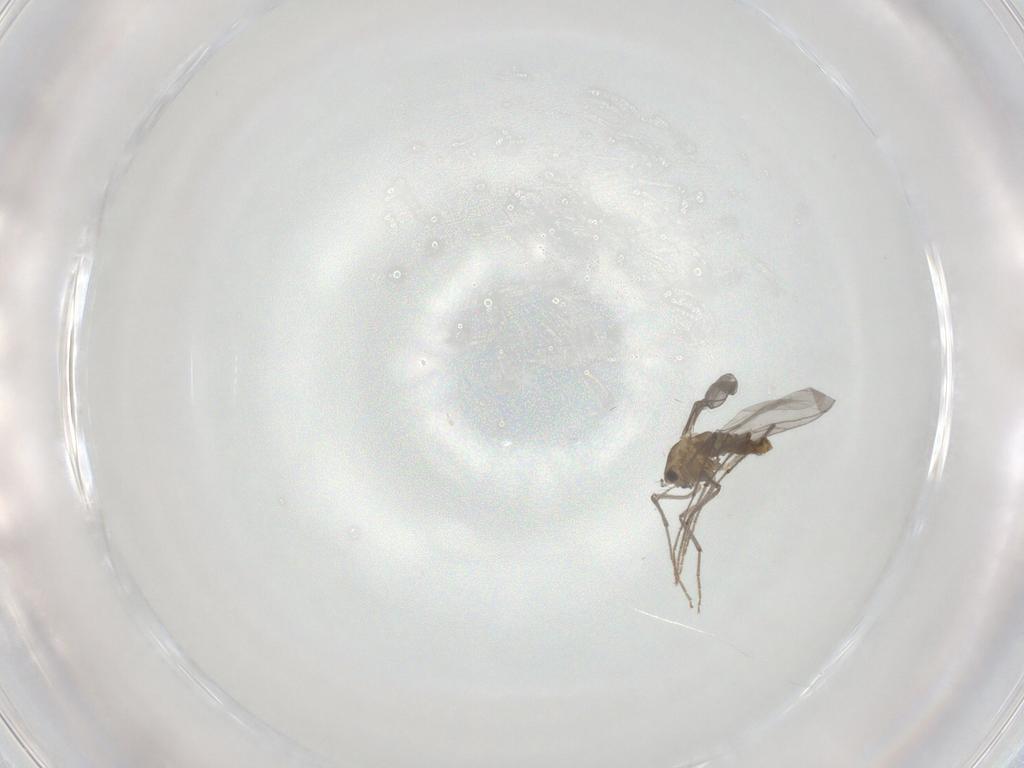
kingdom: Animalia
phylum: Arthropoda
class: Insecta
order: Diptera
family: Chironomidae
